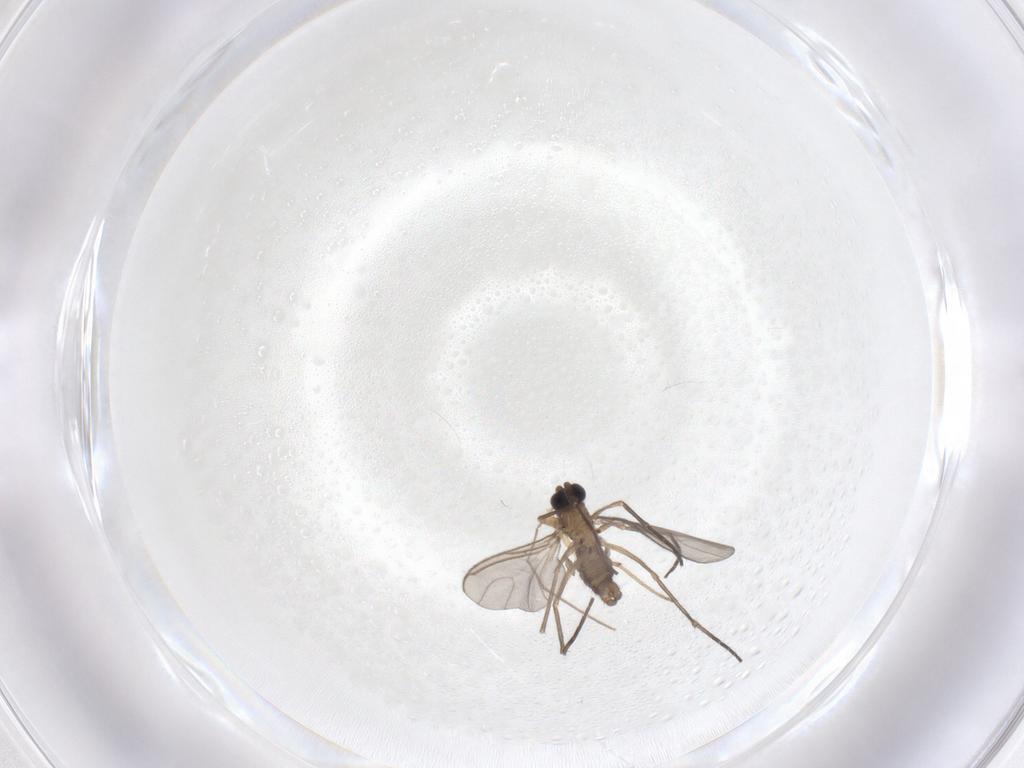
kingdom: Animalia
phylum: Arthropoda
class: Insecta
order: Diptera
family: Sciaridae
